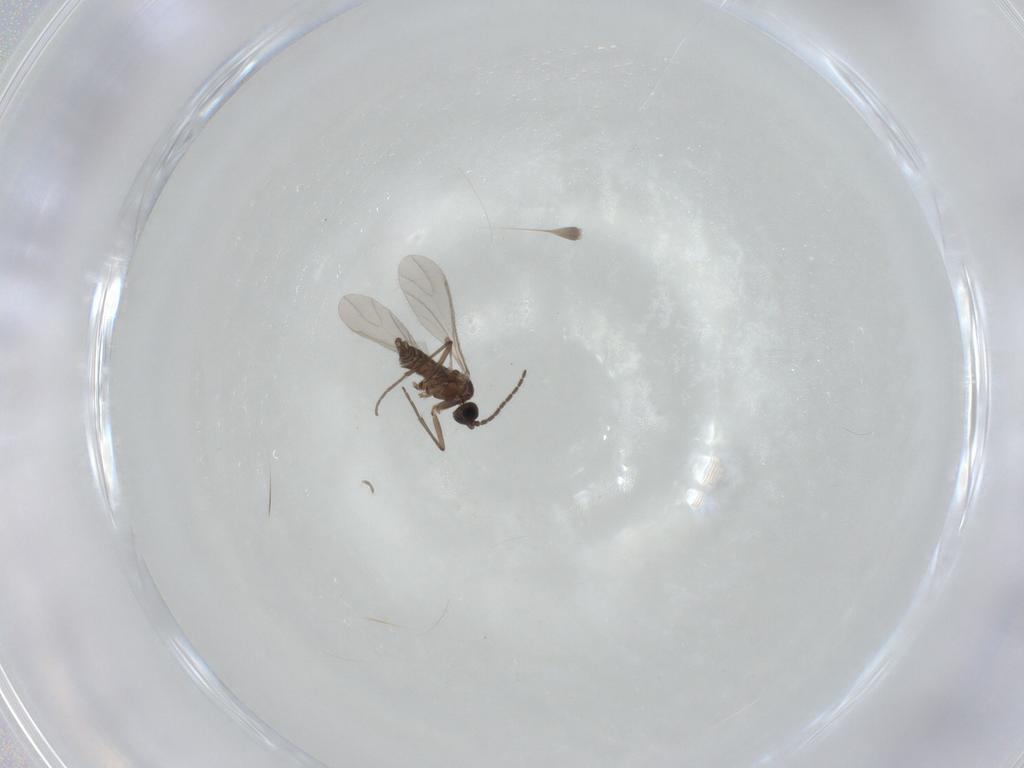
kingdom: Animalia
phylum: Arthropoda
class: Insecta
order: Diptera
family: Sciaridae
